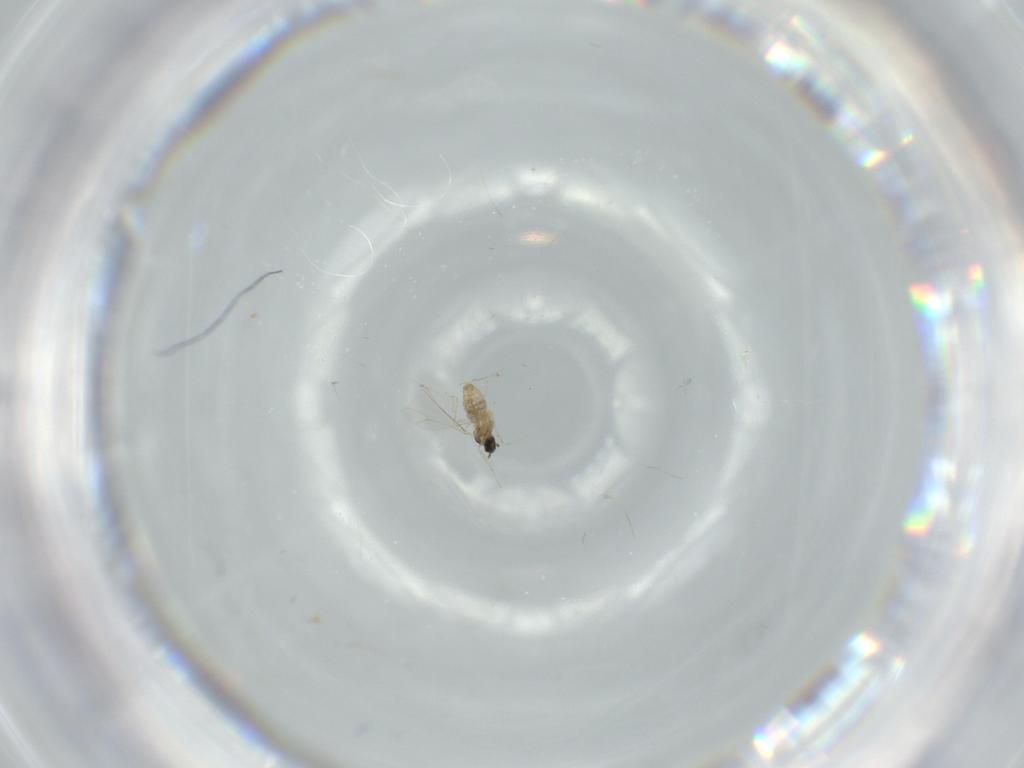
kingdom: Animalia
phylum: Arthropoda
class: Insecta
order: Diptera
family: Cecidomyiidae
